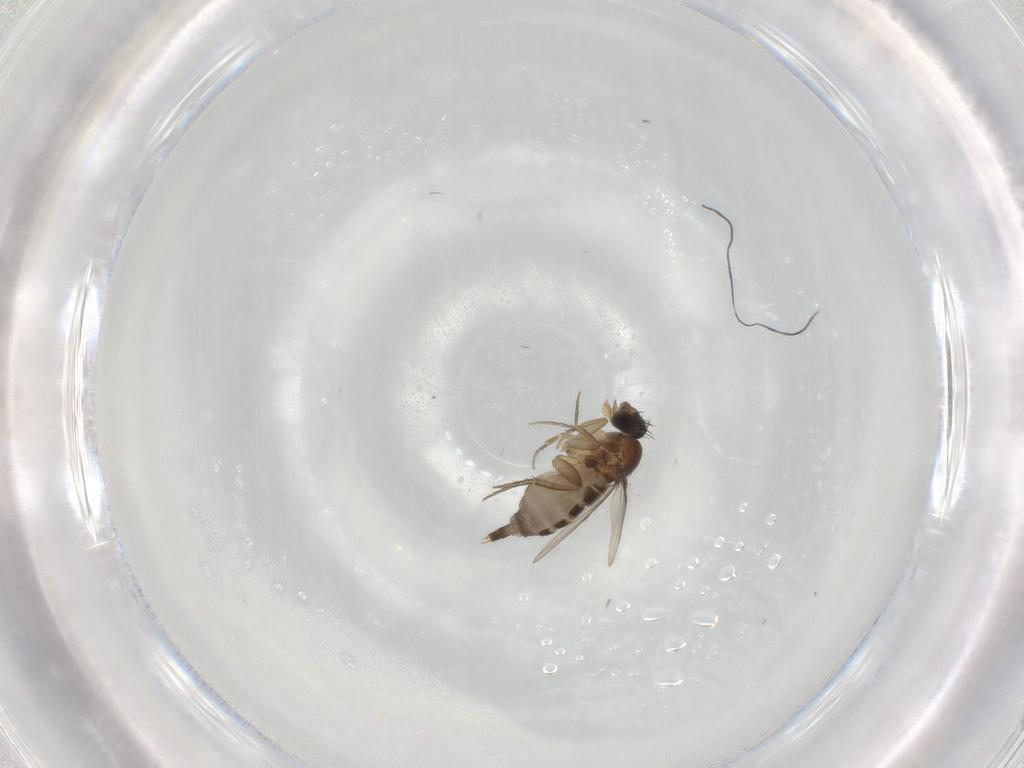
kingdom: Animalia
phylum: Arthropoda
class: Insecta
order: Diptera
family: Phoridae
